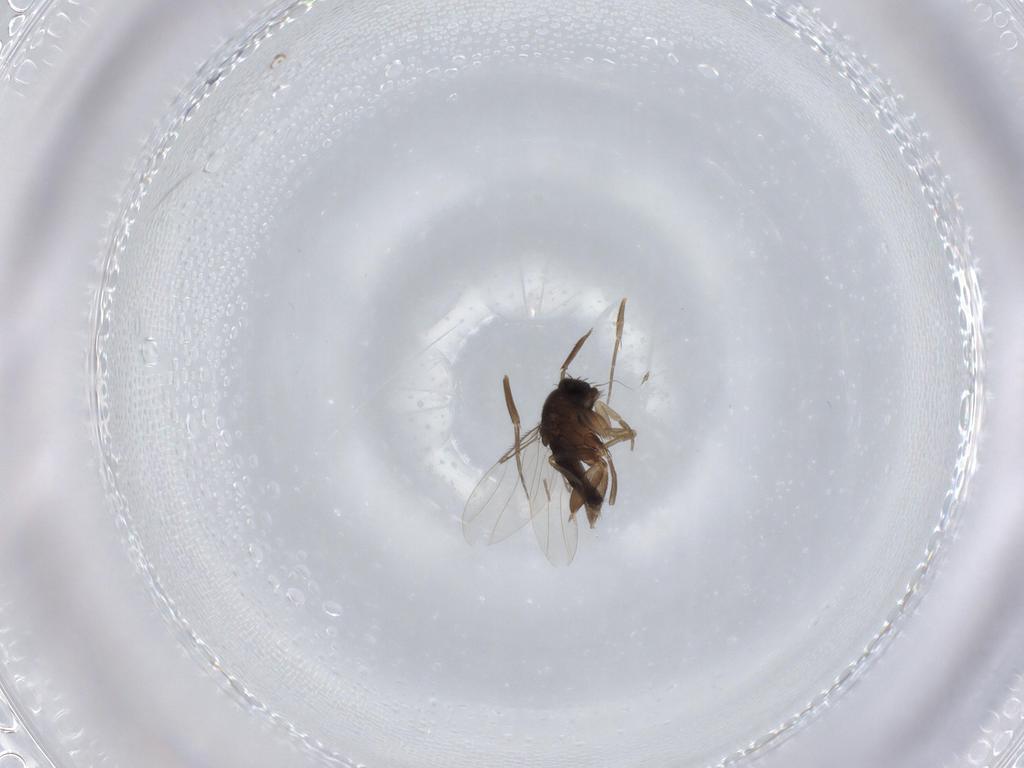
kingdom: Animalia
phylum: Arthropoda
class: Insecta
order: Diptera
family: Phoridae
